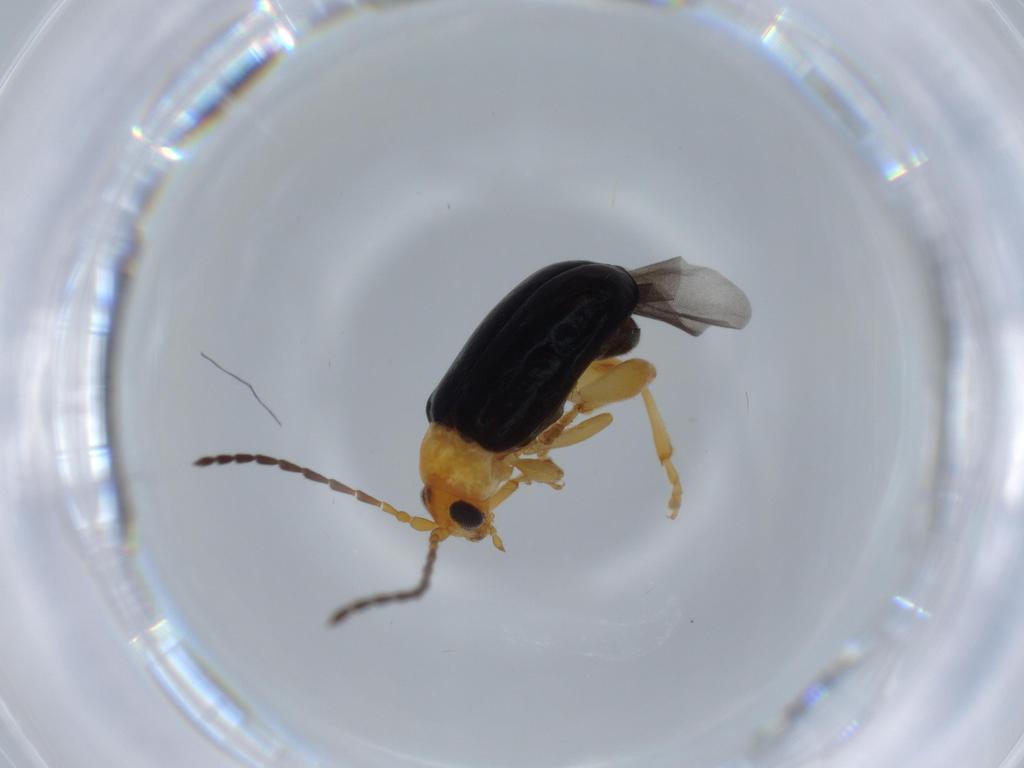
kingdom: Animalia
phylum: Arthropoda
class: Insecta
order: Coleoptera
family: Chrysomelidae
